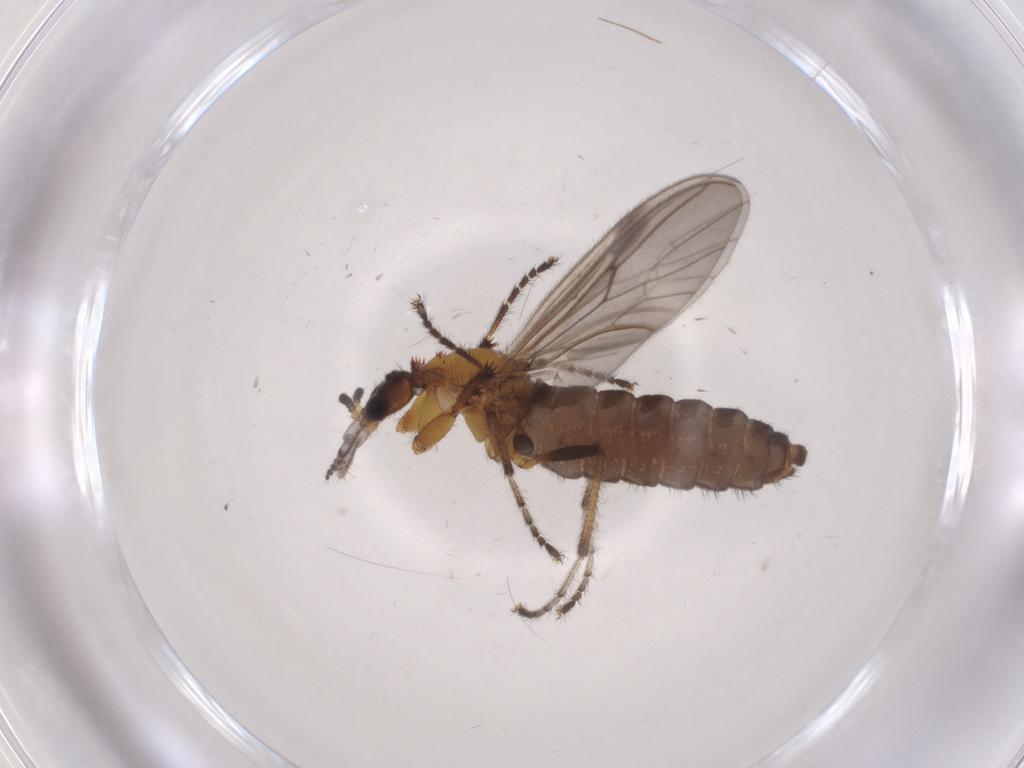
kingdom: Animalia
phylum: Arthropoda
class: Insecta
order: Diptera
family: Bibionidae
